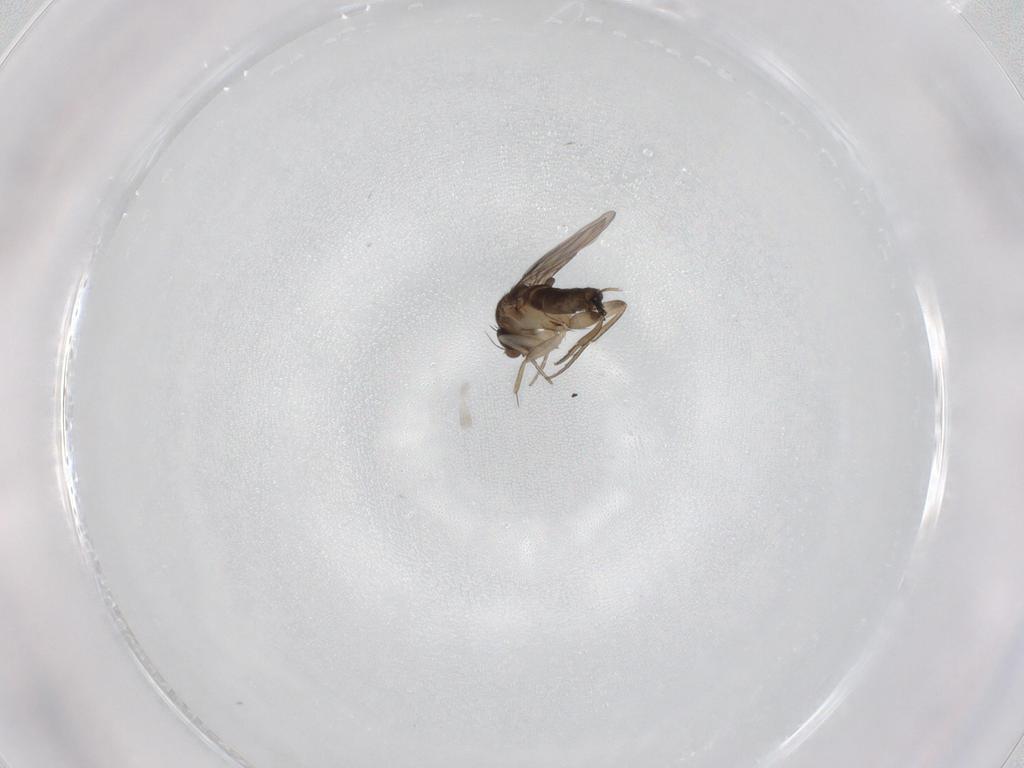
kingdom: Animalia
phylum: Arthropoda
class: Insecta
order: Diptera
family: Phoridae
